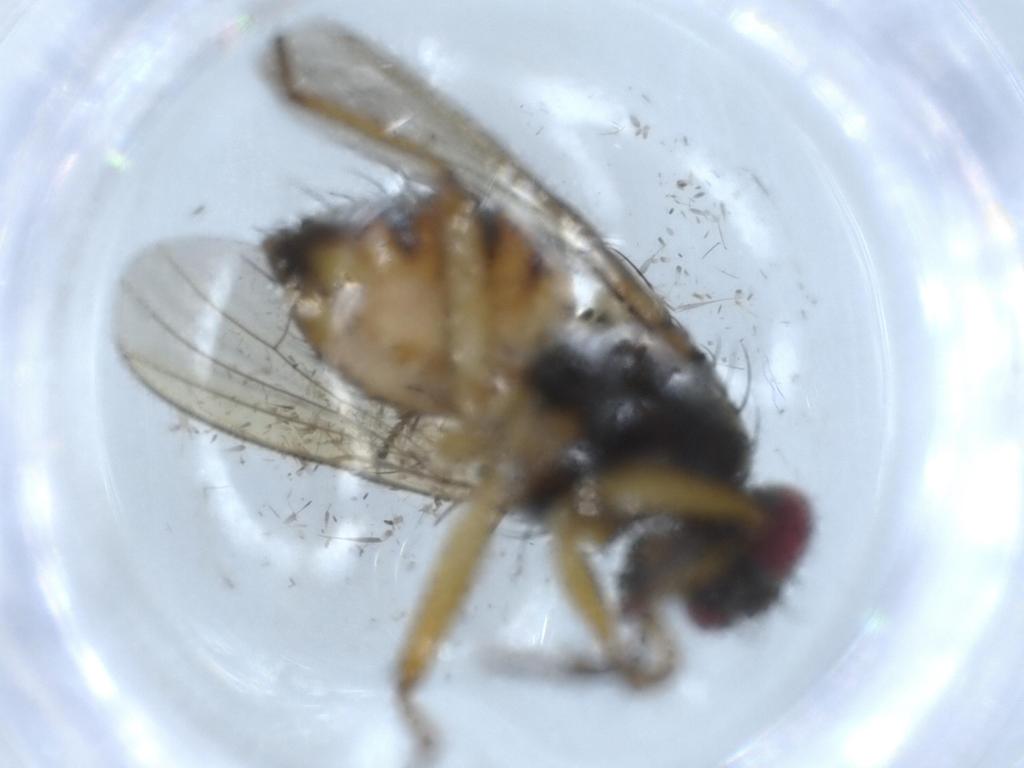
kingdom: Animalia
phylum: Arthropoda
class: Insecta
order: Diptera
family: Muscidae
